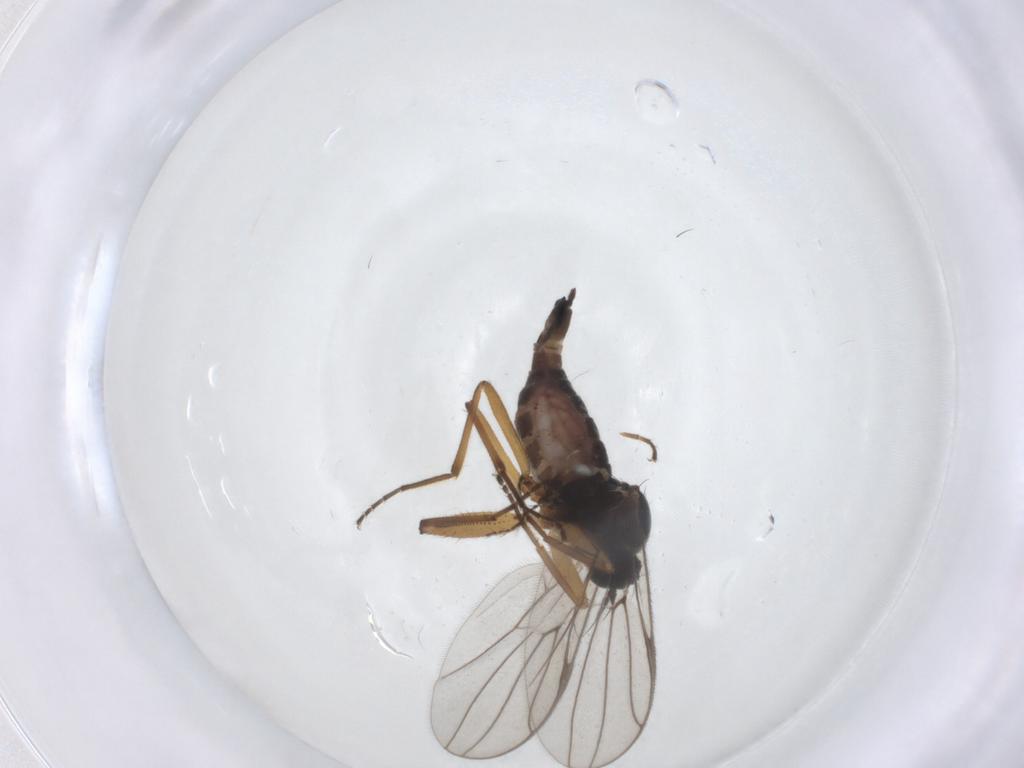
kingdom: Animalia
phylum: Arthropoda
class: Insecta
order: Diptera
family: Hybotidae
